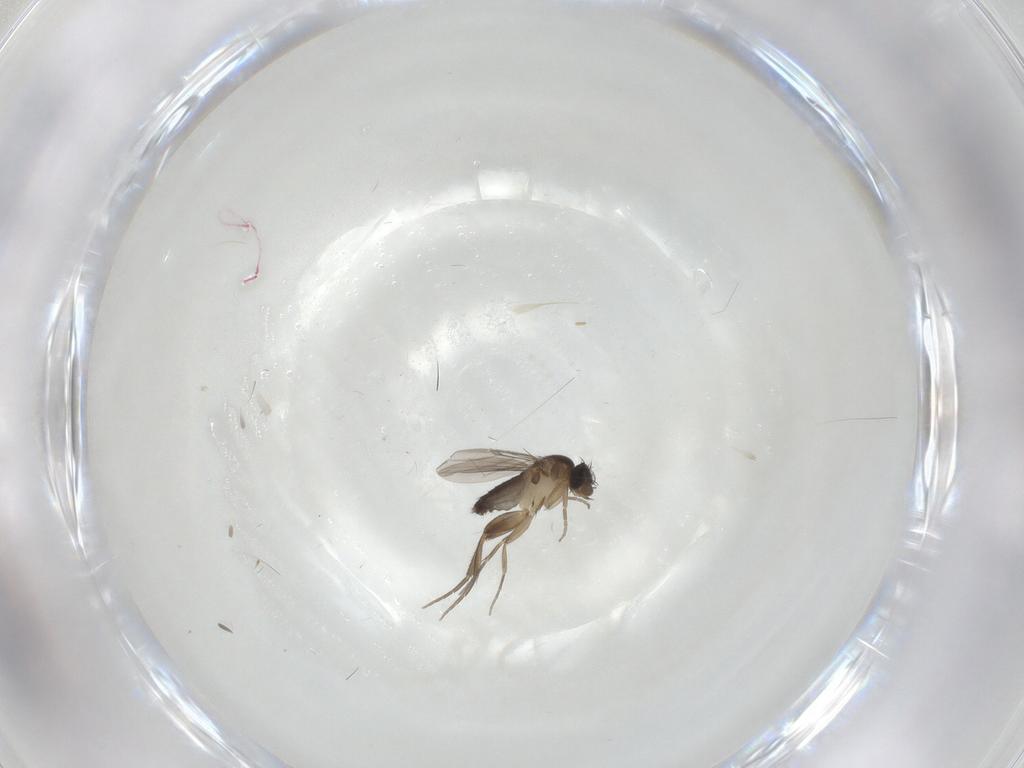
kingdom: Animalia
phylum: Arthropoda
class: Insecta
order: Diptera
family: Phoridae
